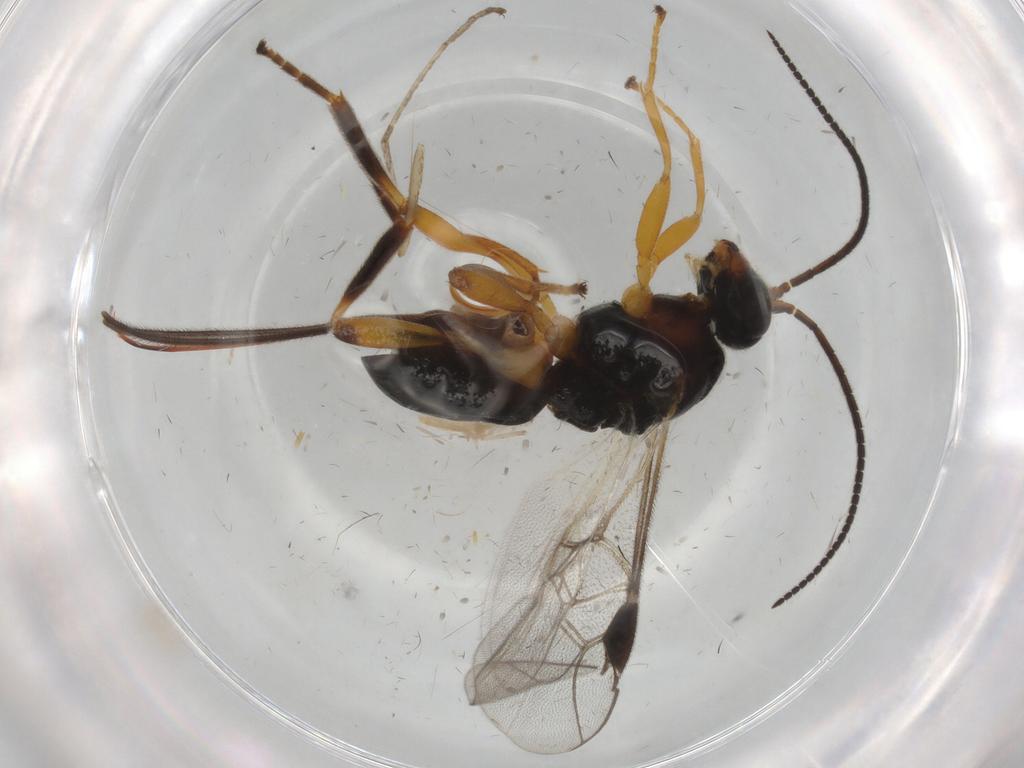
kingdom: Animalia
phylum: Arthropoda
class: Insecta
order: Hymenoptera
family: Braconidae
